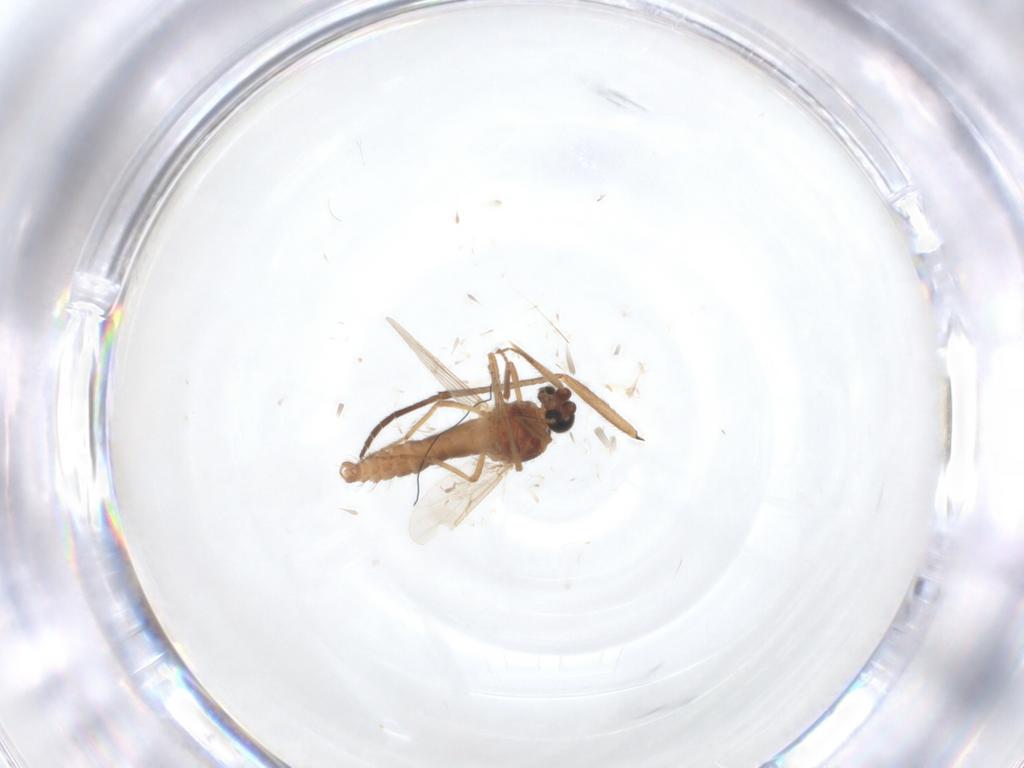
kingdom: Animalia
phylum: Arthropoda
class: Insecta
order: Diptera
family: Sciaridae
